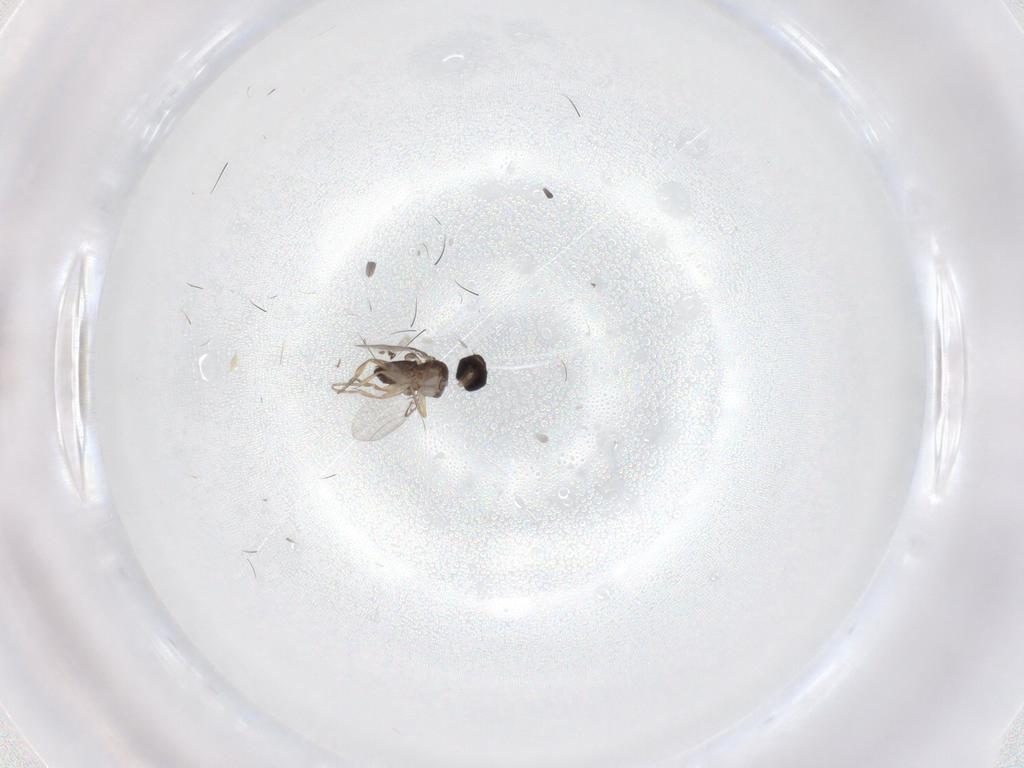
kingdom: Animalia
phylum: Arthropoda
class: Insecta
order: Diptera
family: Phoridae
